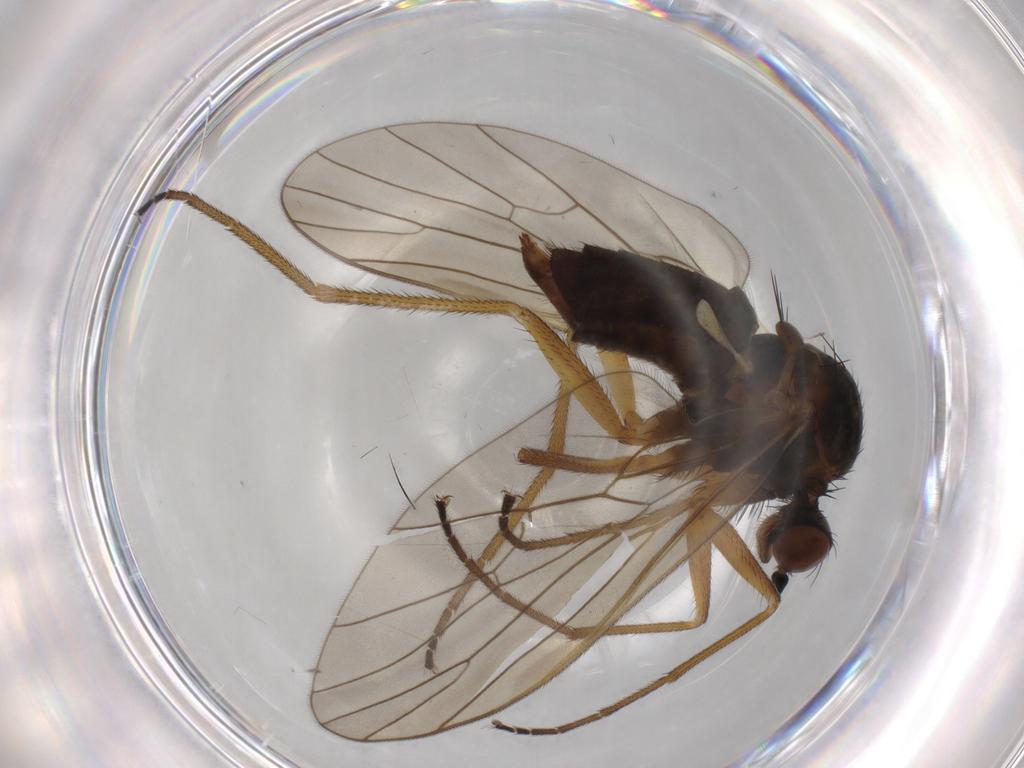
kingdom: Animalia
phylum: Arthropoda
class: Insecta
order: Diptera
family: Brachystomatidae
